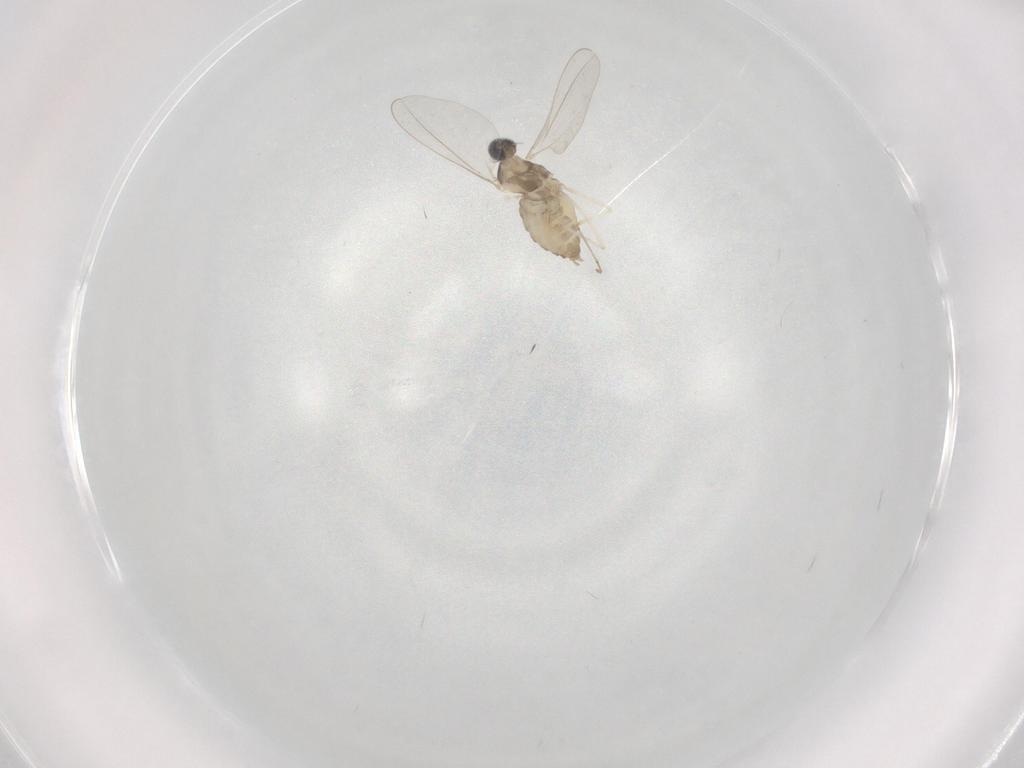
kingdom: Animalia
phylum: Arthropoda
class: Insecta
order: Diptera
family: Cecidomyiidae
